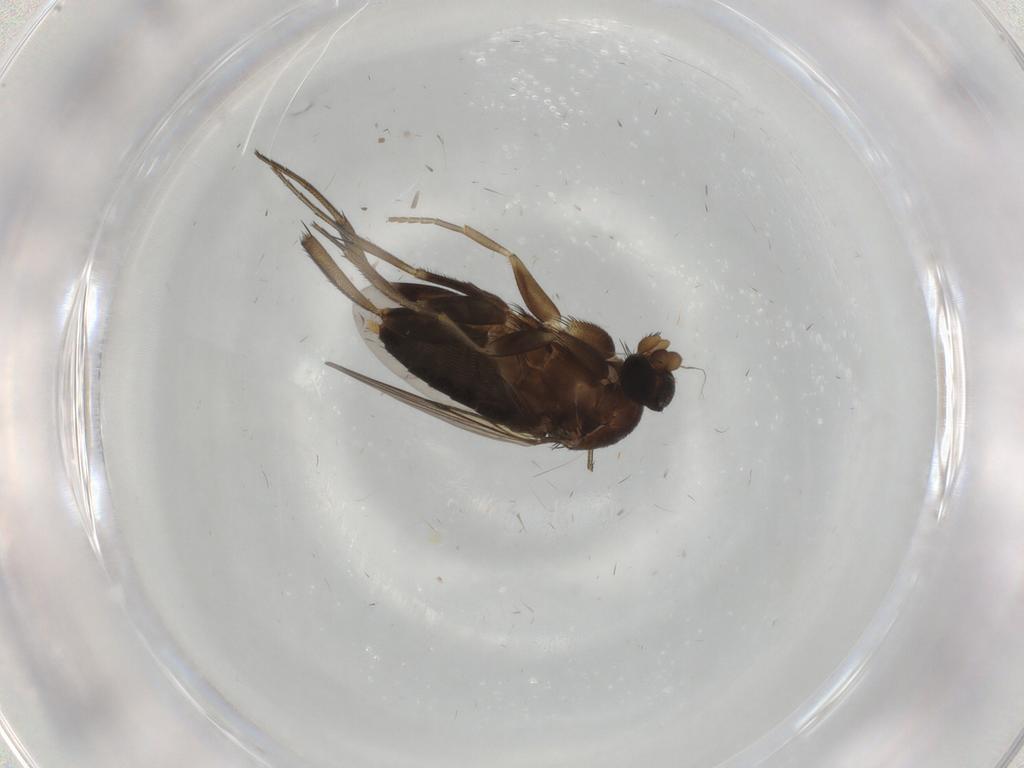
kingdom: Animalia
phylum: Arthropoda
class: Insecta
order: Diptera
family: Phoridae
